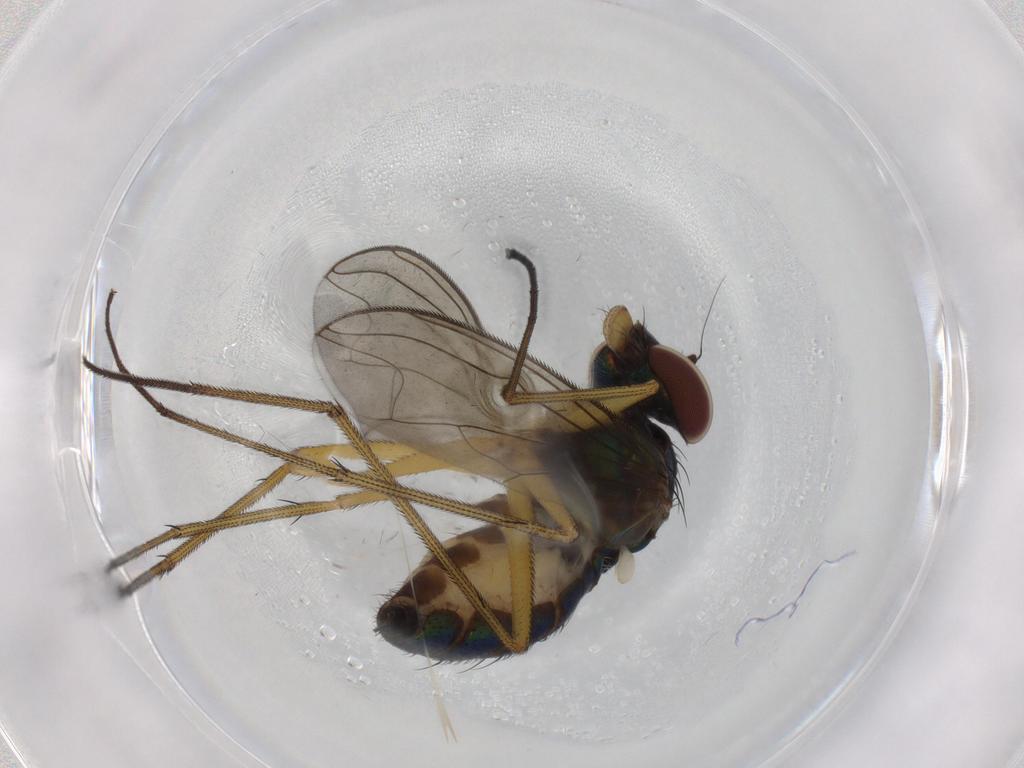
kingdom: Animalia
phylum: Arthropoda
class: Insecta
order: Diptera
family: Dolichopodidae
